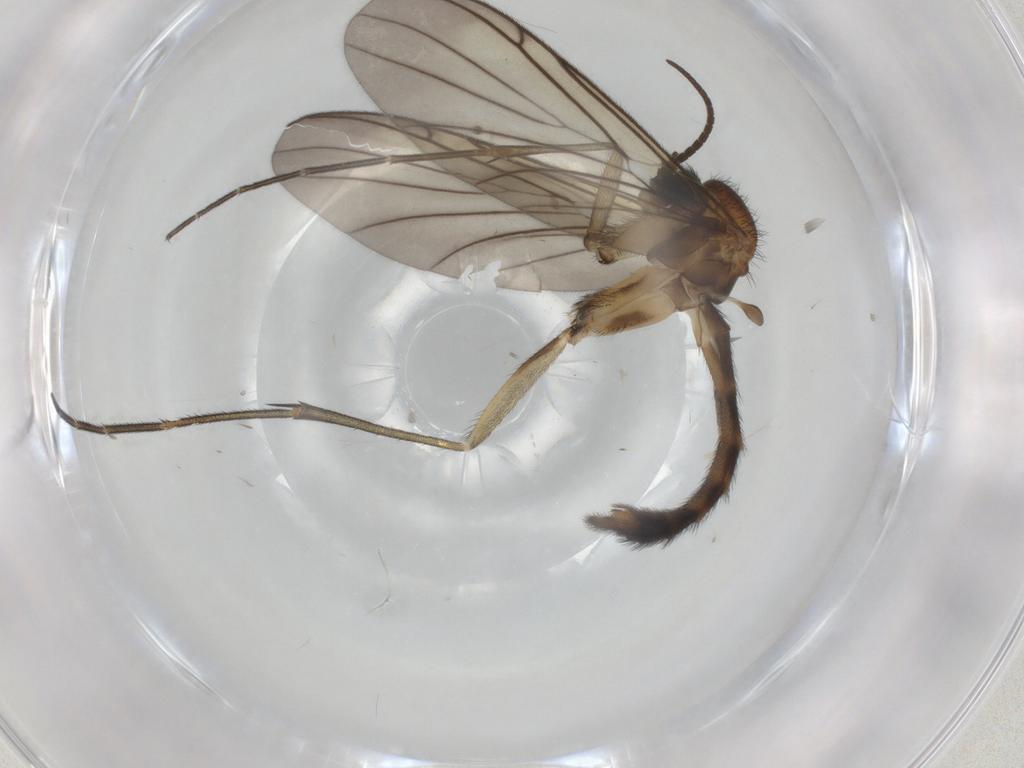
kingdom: Animalia
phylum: Arthropoda
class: Insecta
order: Diptera
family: Keroplatidae
